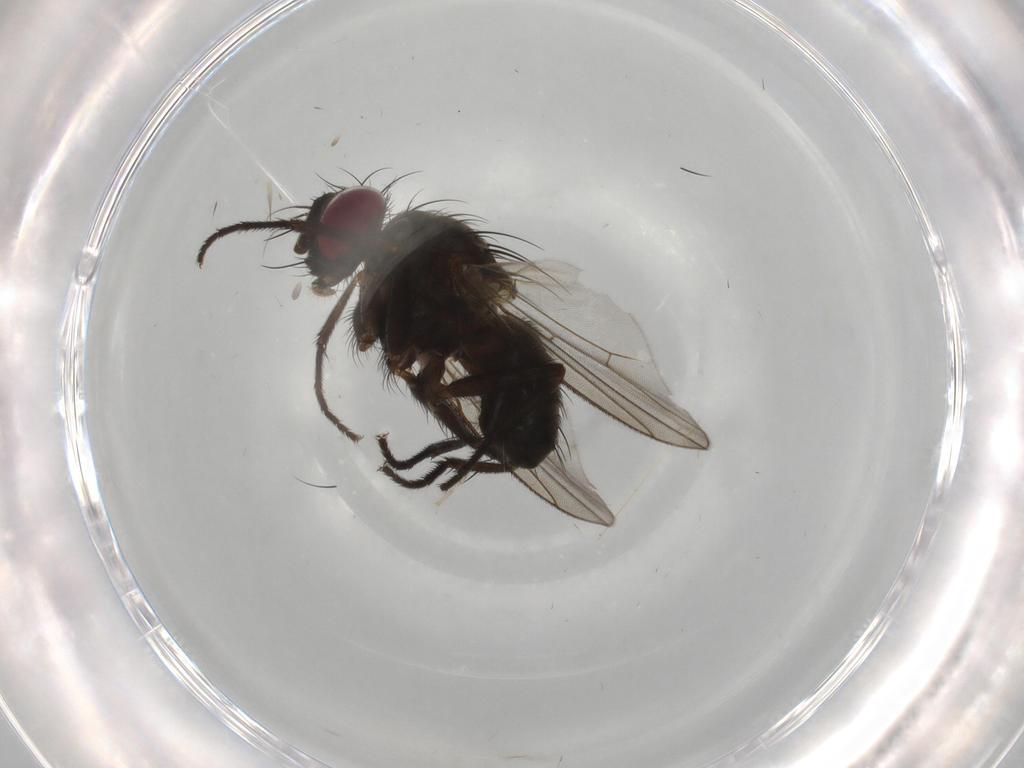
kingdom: Animalia
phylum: Arthropoda
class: Insecta
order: Diptera
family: Muscidae
